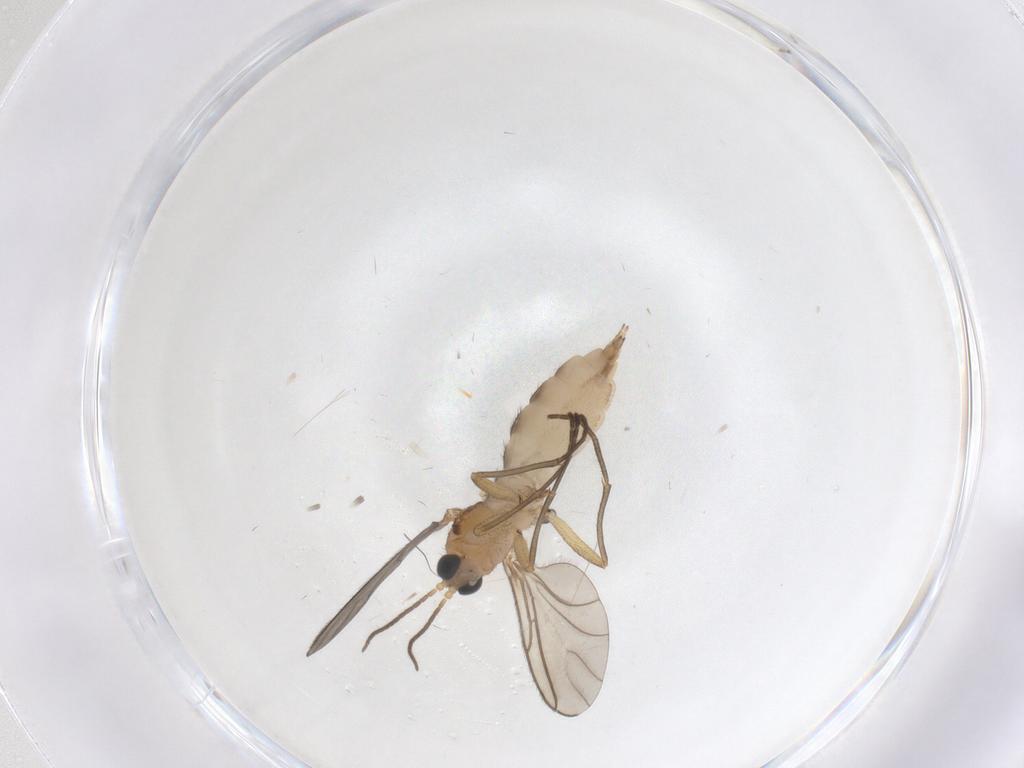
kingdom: Animalia
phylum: Arthropoda
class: Insecta
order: Diptera
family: Sciaridae
